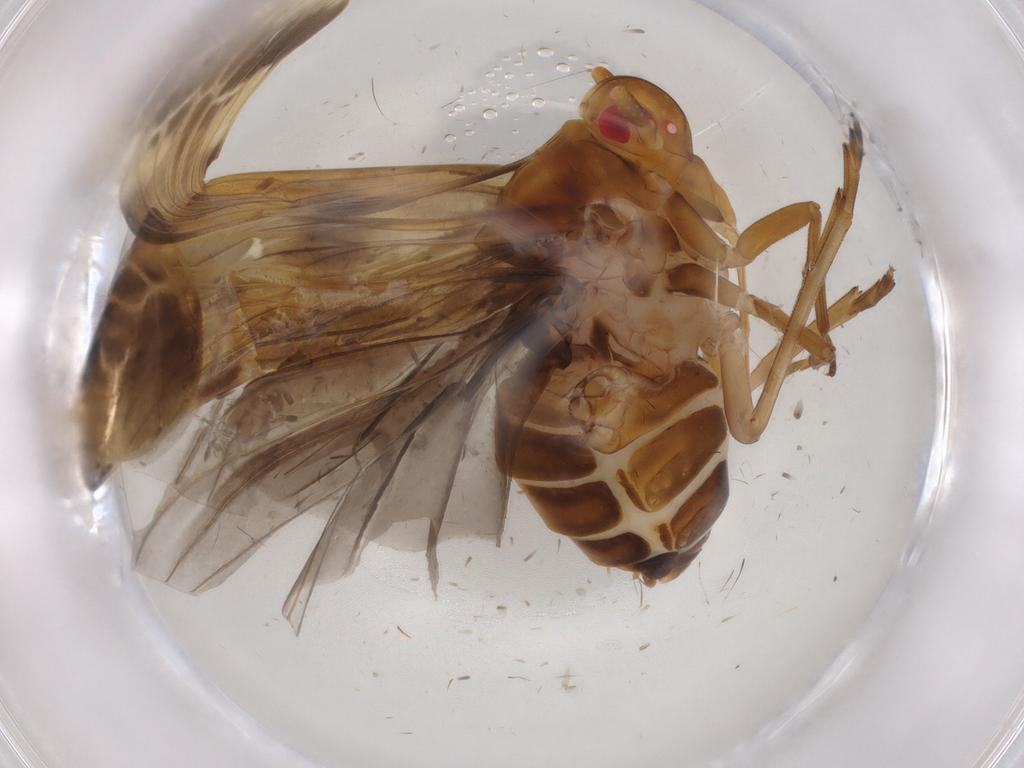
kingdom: Animalia
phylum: Arthropoda
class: Insecta
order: Hemiptera
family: Achilixiidae
